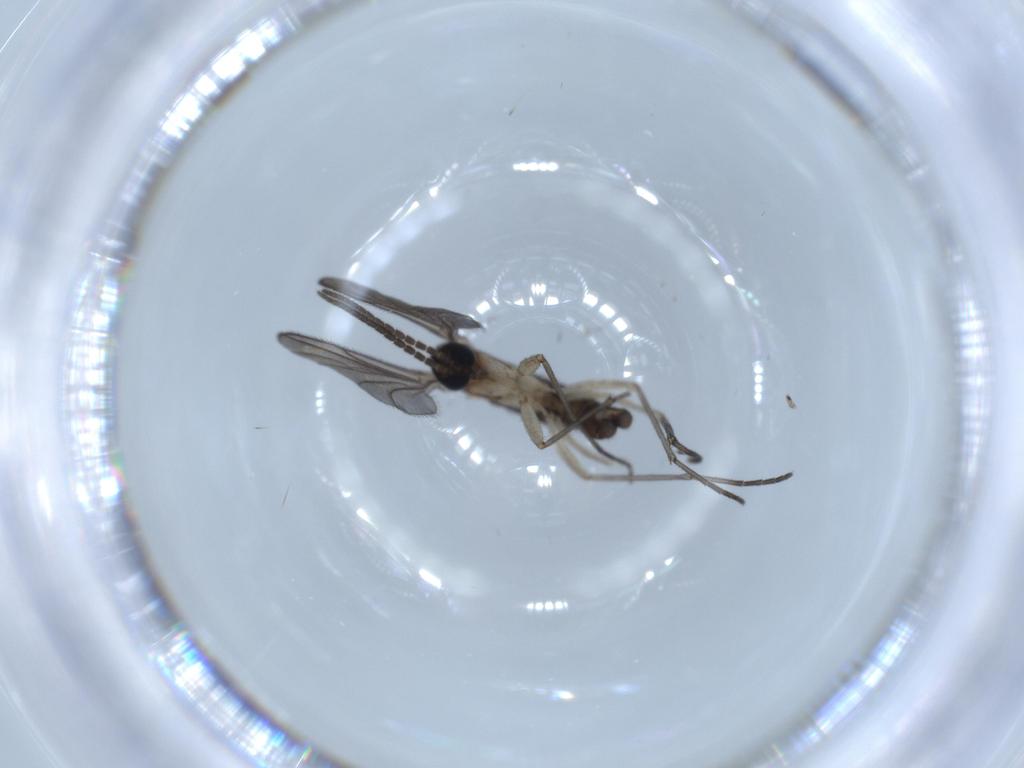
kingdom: Animalia
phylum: Arthropoda
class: Insecta
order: Diptera
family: Sciaridae
